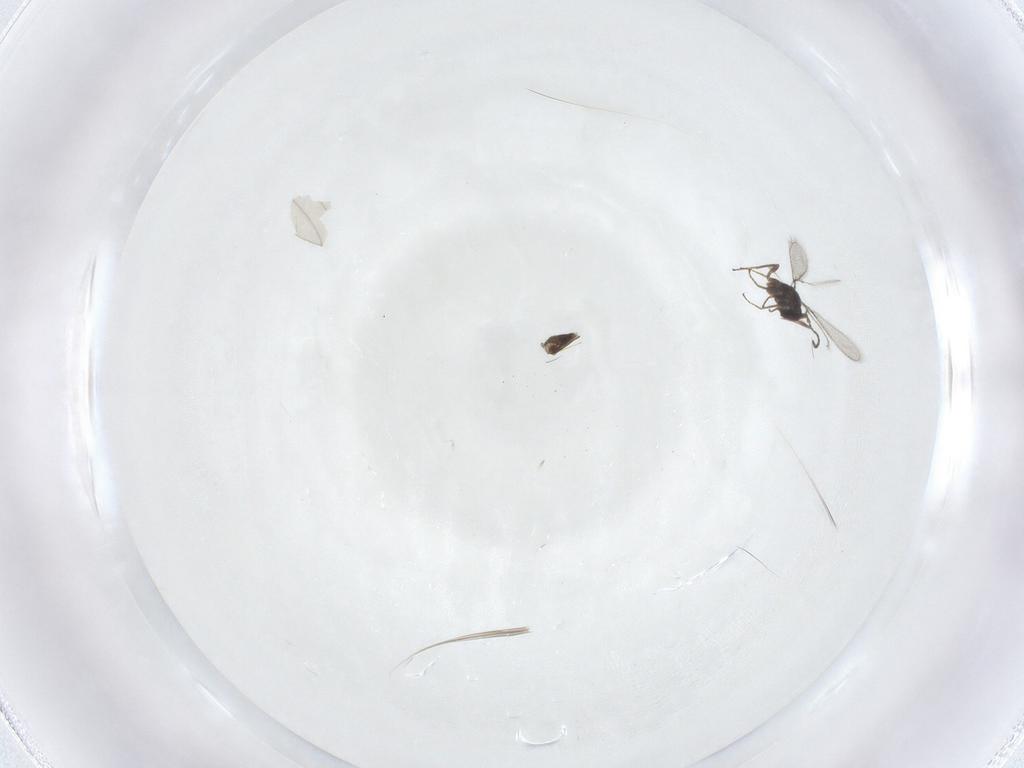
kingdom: Animalia
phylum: Arthropoda
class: Insecta
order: Hymenoptera
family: Mymaridae
